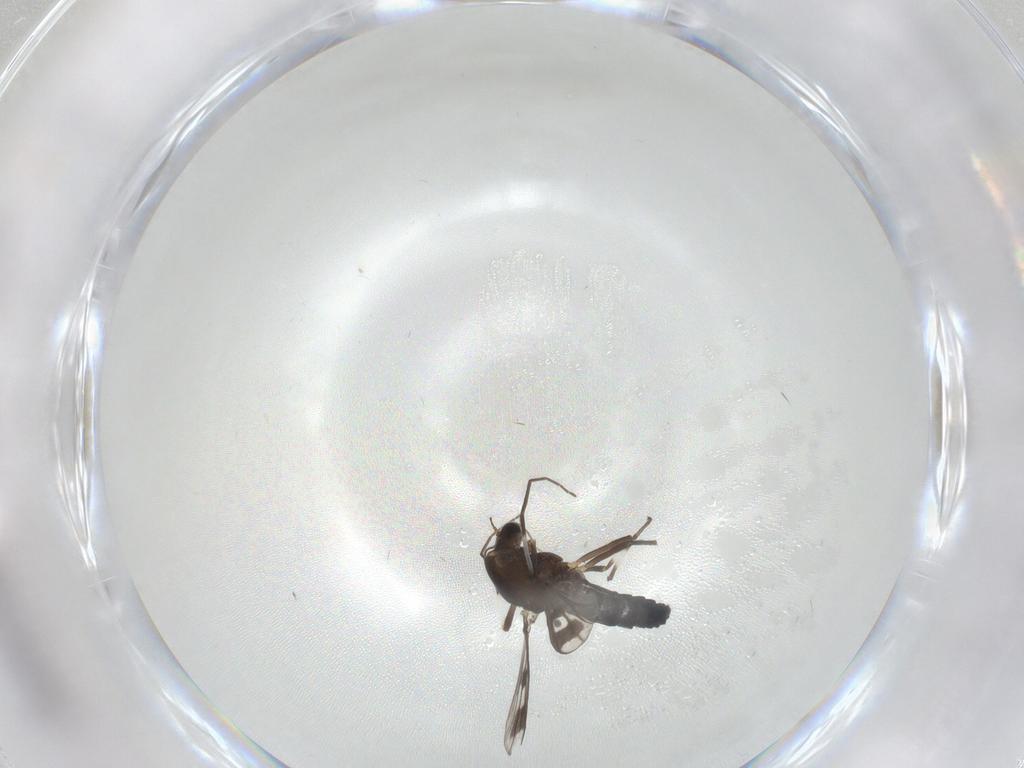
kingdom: Animalia
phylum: Arthropoda
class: Insecta
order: Diptera
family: Chironomidae
